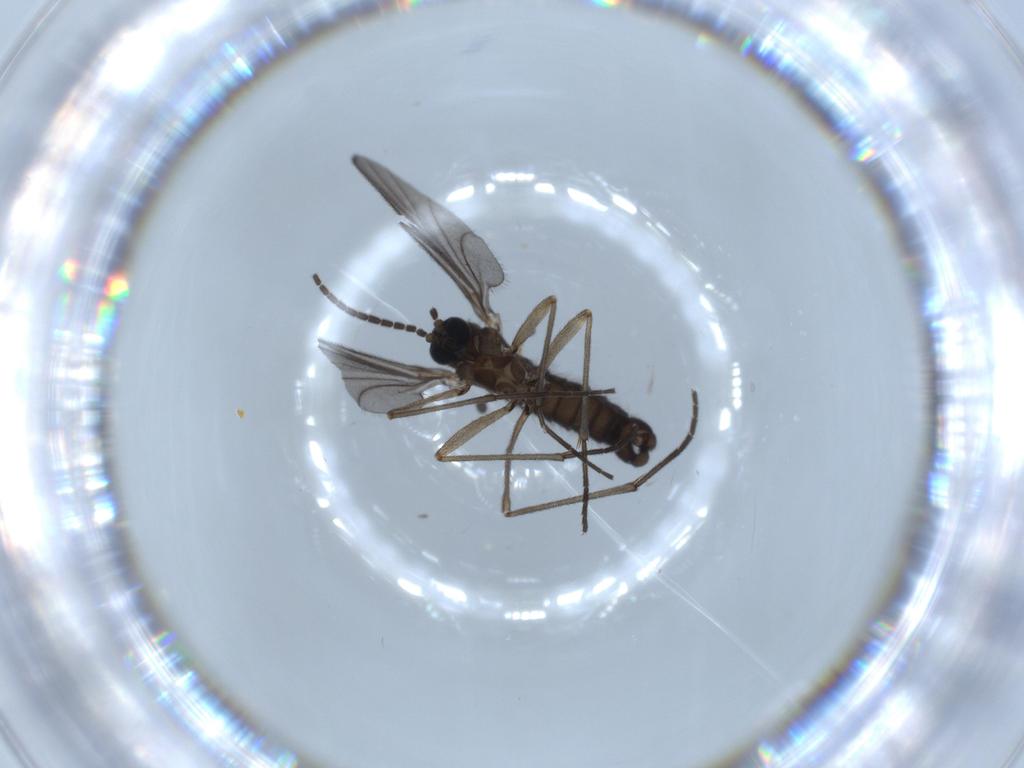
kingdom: Animalia
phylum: Arthropoda
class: Insecta
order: Diptera
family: Sciaridae
